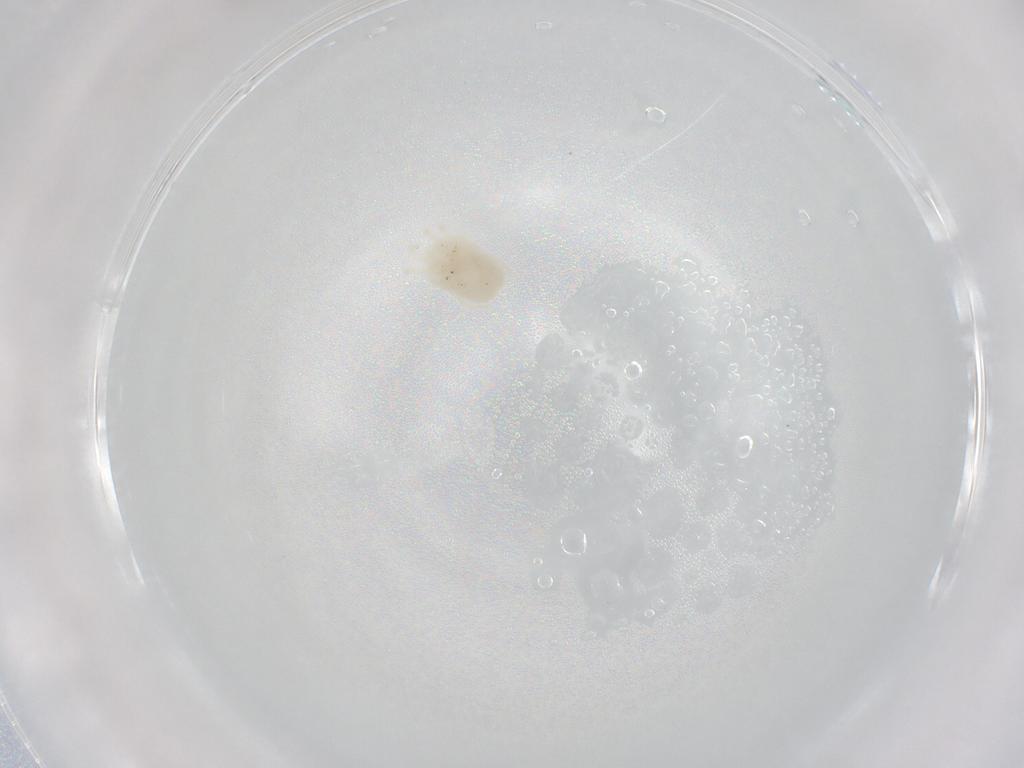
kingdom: Animalia
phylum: Arthropoda
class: Arachnida
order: Sarcoptiformes
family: Alycidae
